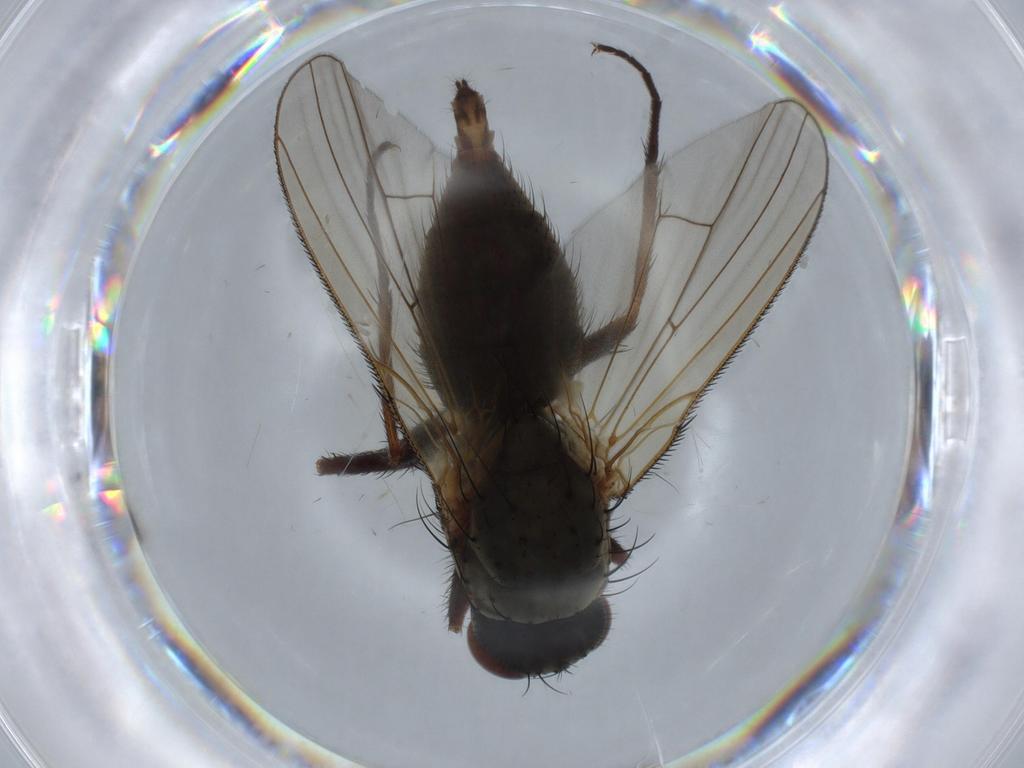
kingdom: Animalia
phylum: Arthropoda
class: Insecta
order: Diptera
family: Anthomyiidae
